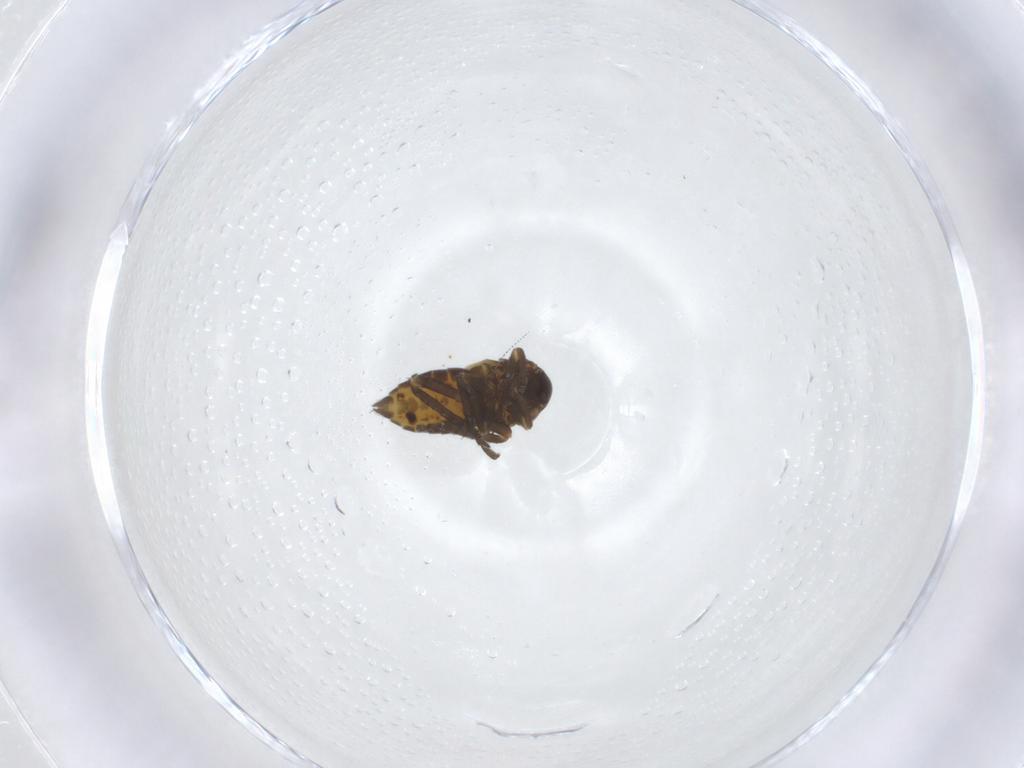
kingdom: Animalia
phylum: Arthropoda
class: Insecta
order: Hemiptera
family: Cicadellidae
